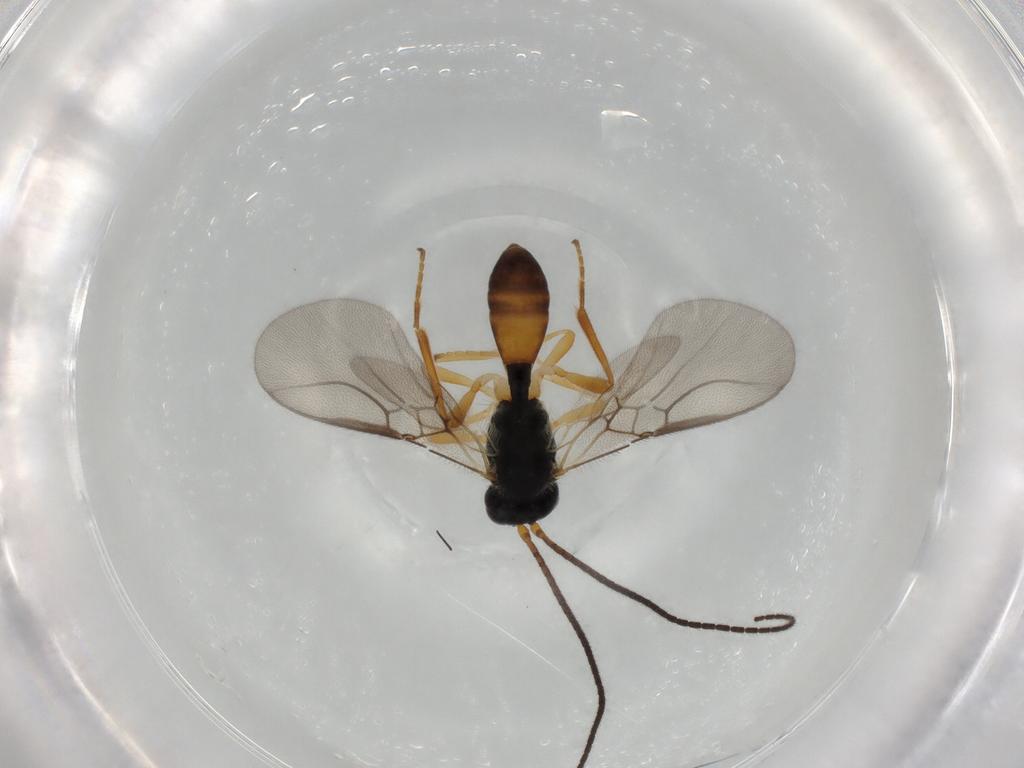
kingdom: Animalia
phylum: Arthropoda
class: Insecta
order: Hymenoptera
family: Braconidae
